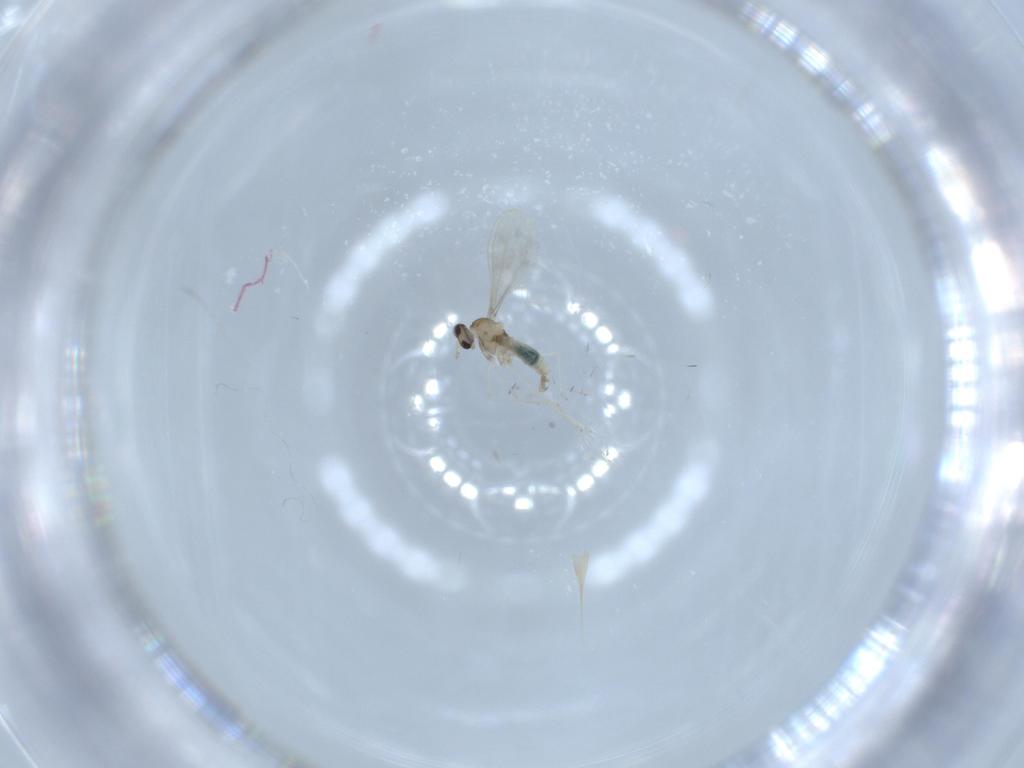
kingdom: Animalia
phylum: Arthropoda
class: Insecta
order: Diptera
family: Cecidomyiidae
